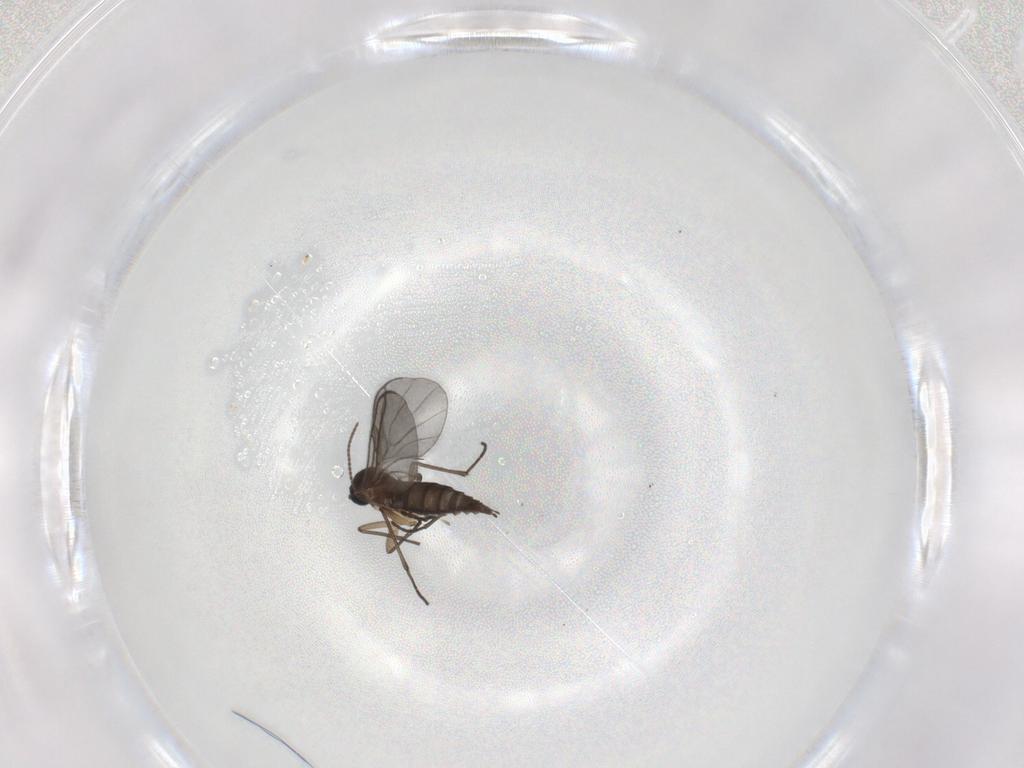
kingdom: Animalia
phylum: Arthropoda
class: Insecta
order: Diptera
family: Sciaridae
